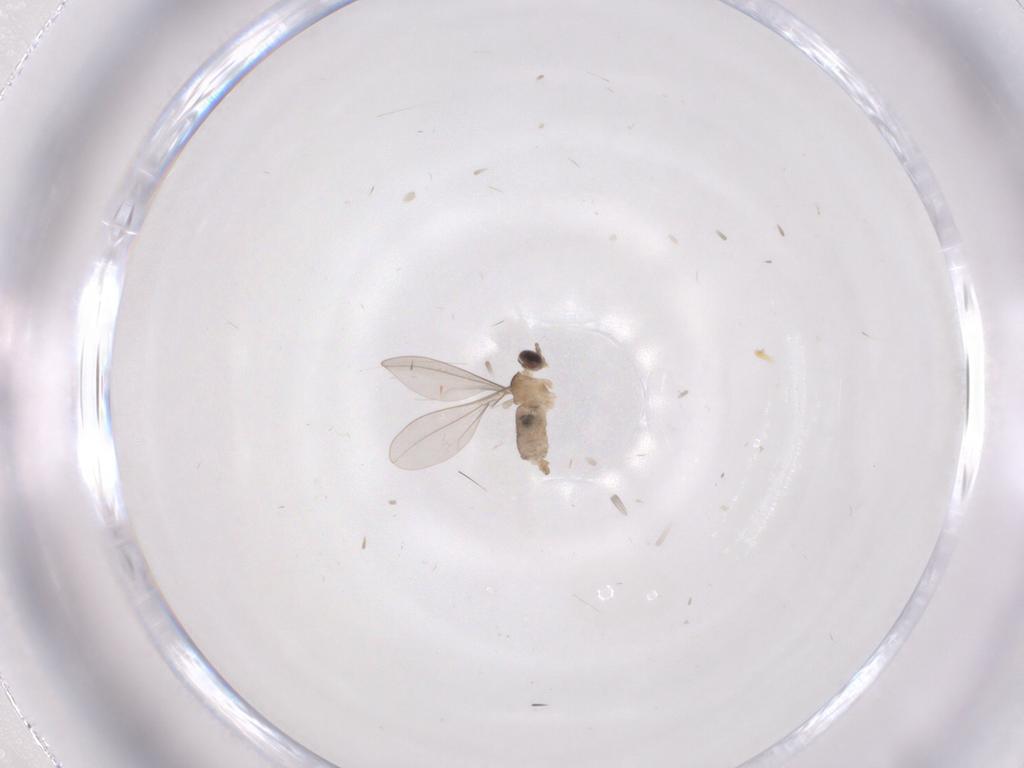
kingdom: Animalia
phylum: Arthropoda
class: Insecta
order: Diptera
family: Cecidomyiidae
